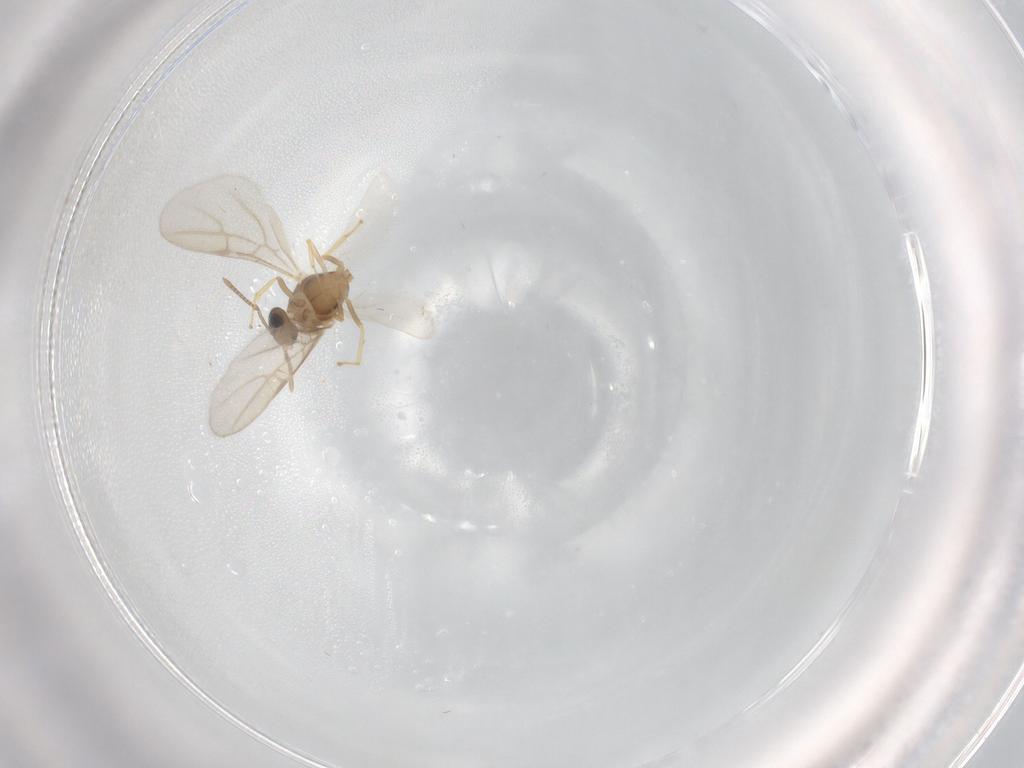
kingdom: Animalia
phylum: Arthropoda
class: Insecta
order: Hymenoptera
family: Formicidae
